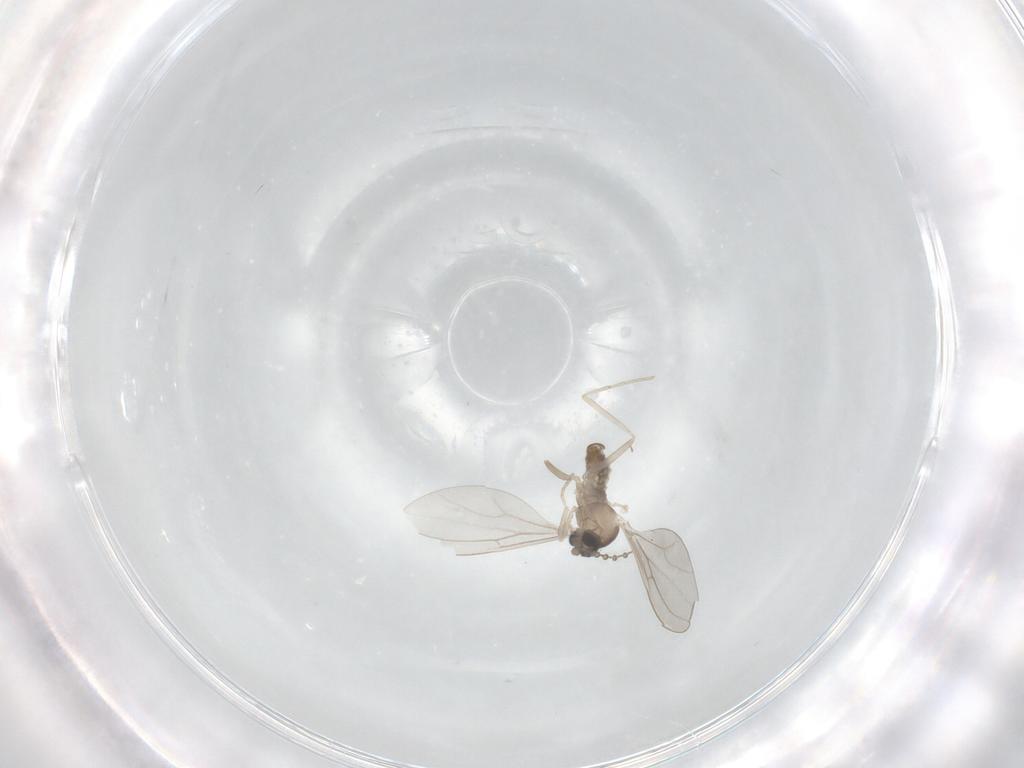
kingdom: Animalia
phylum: Arthropoda
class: Insecta
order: Diptera
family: Cecidomyiidae
